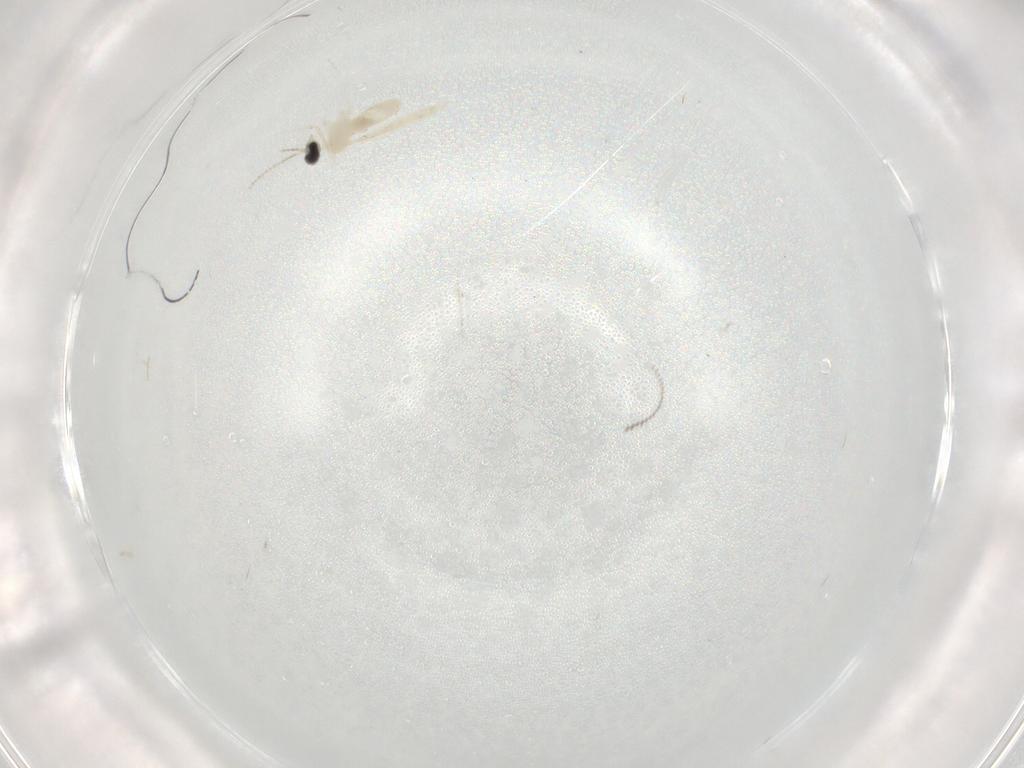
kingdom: Animalia
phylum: Arthropoda
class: Insecta
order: Diptera
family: Cecidomyiidae
